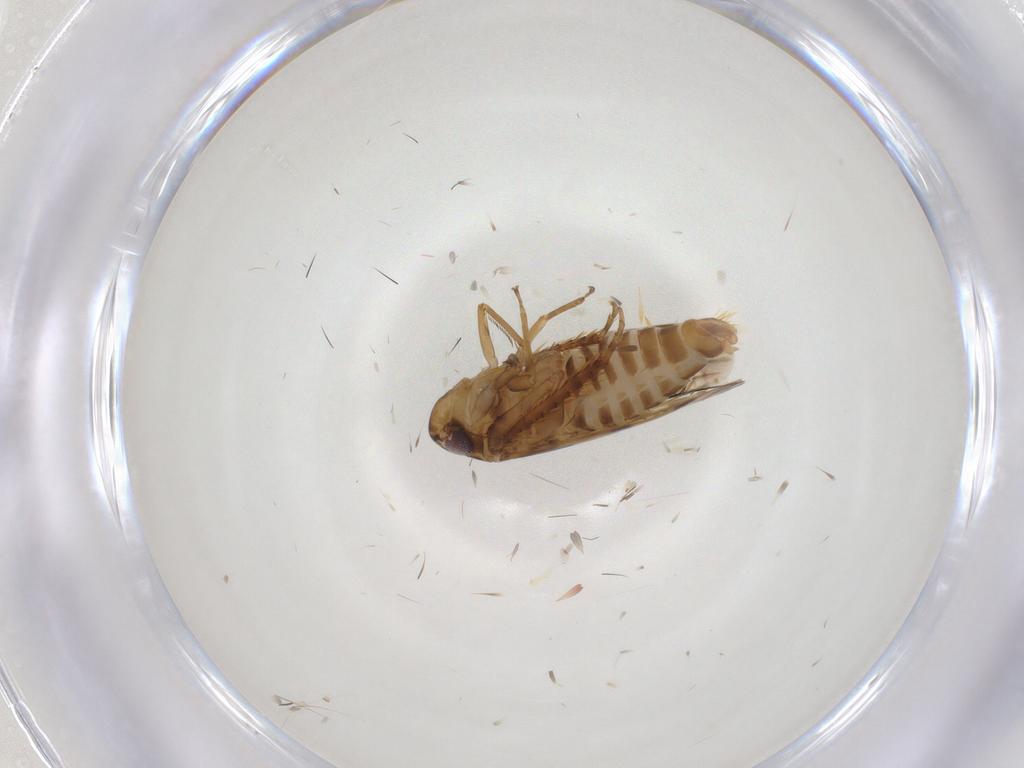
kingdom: Animalia
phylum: Arthropoda
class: Insecta
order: Hemiptera
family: Cicadellidae
